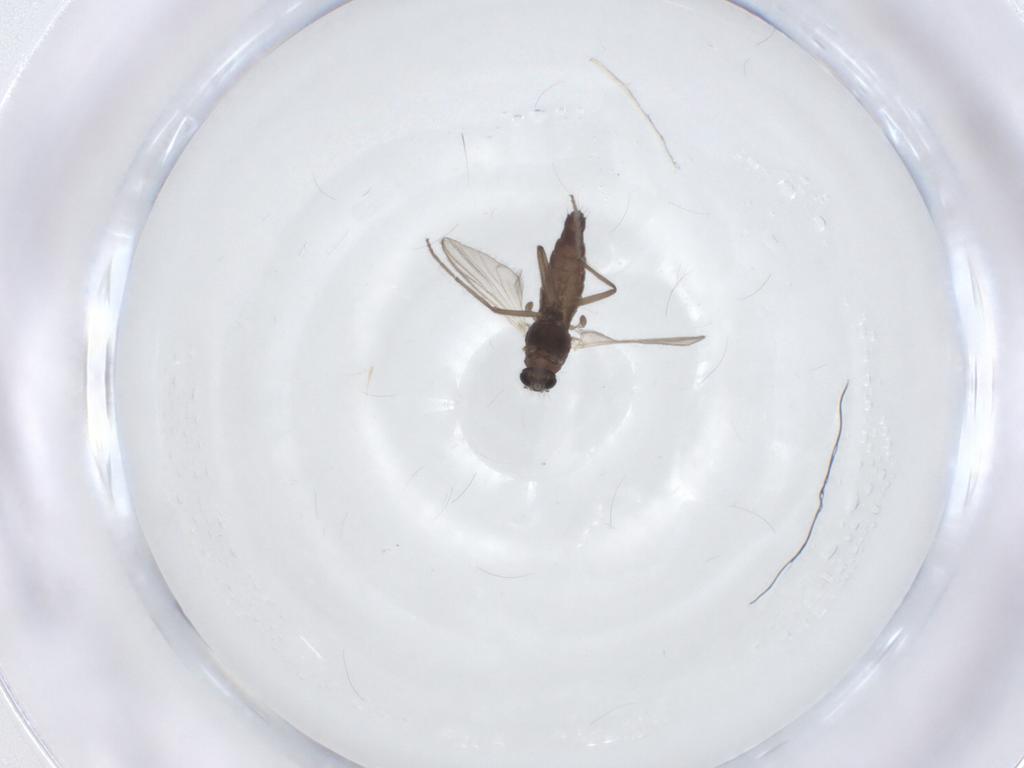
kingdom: Animalia
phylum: Arthropoda
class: Insecta
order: Diptera
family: Chironomidae
